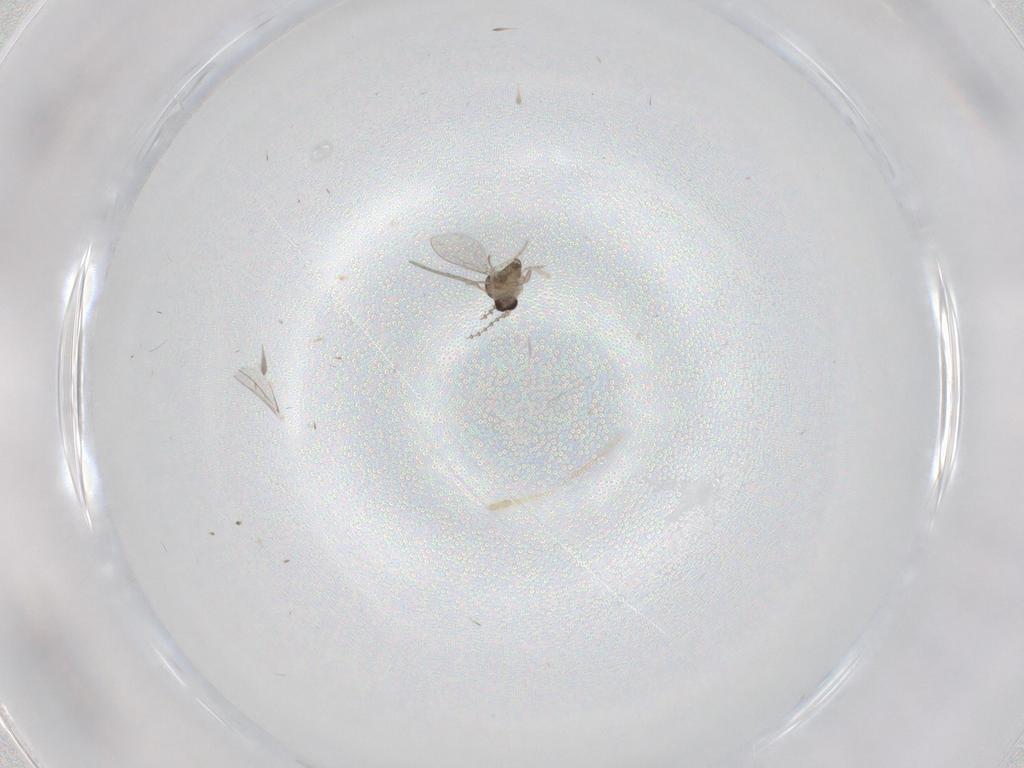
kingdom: Animalia
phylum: Arthropoda
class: Insecta
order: Diptera
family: Cecidomyiidae
